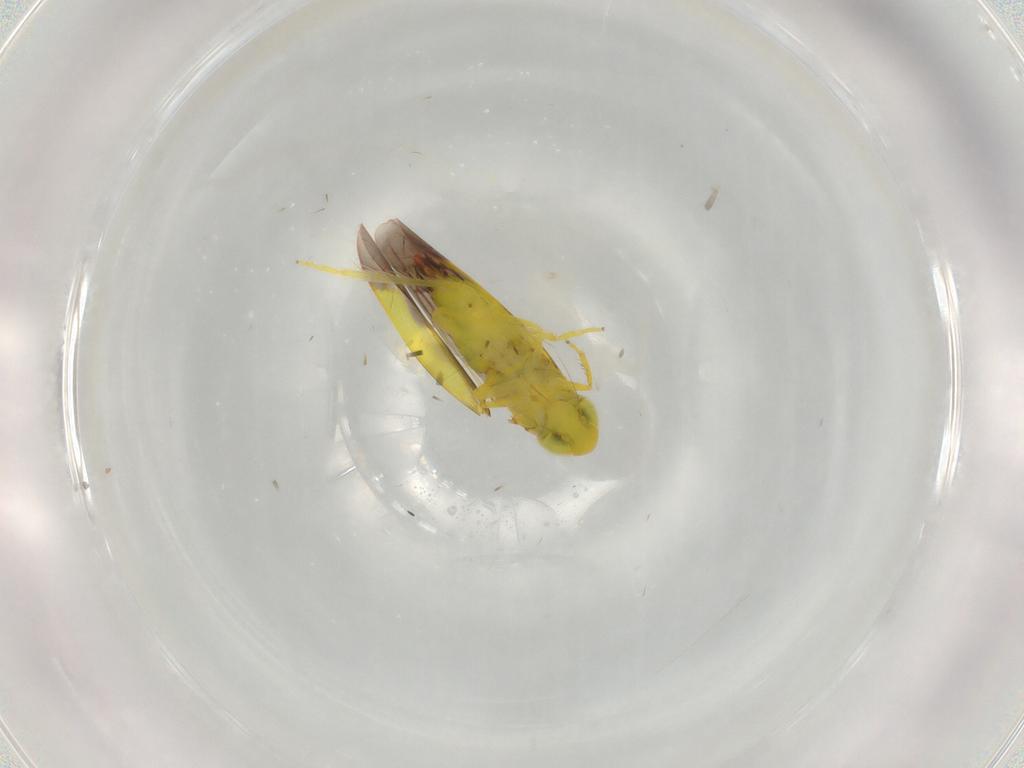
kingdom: Animalia
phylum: Arthropoda
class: Insecta
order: Hemiptera
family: Cicadellidae
